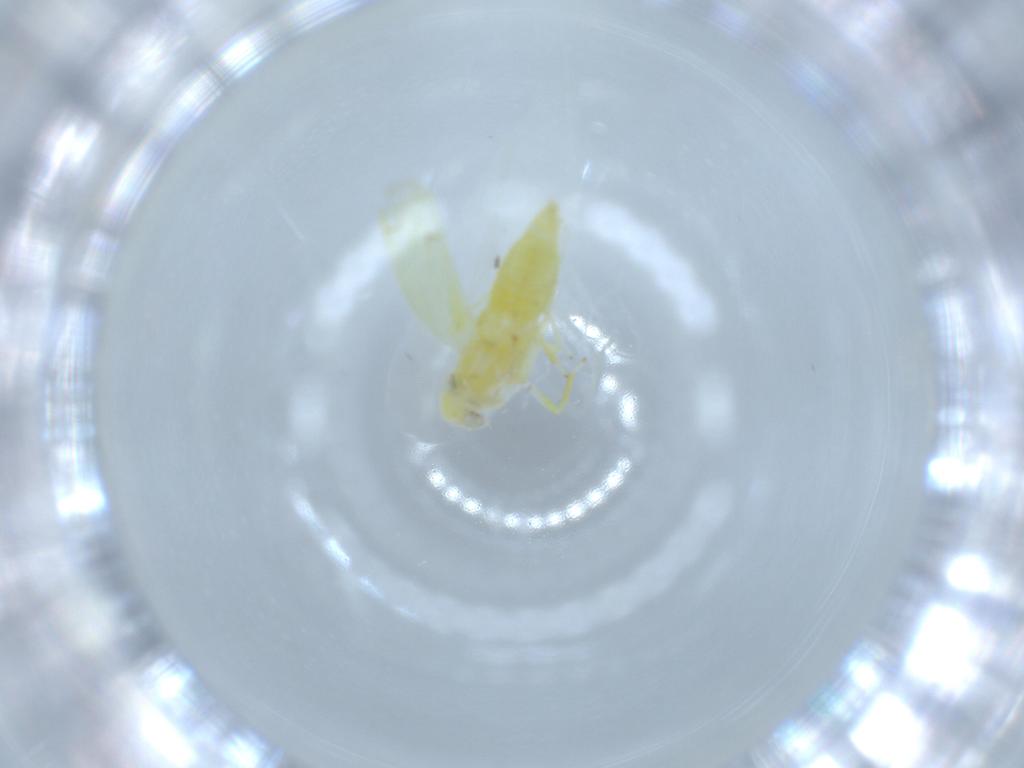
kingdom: Animalia
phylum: Arthropoda
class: Insecta
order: Hemiptera
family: Cicadellidae
